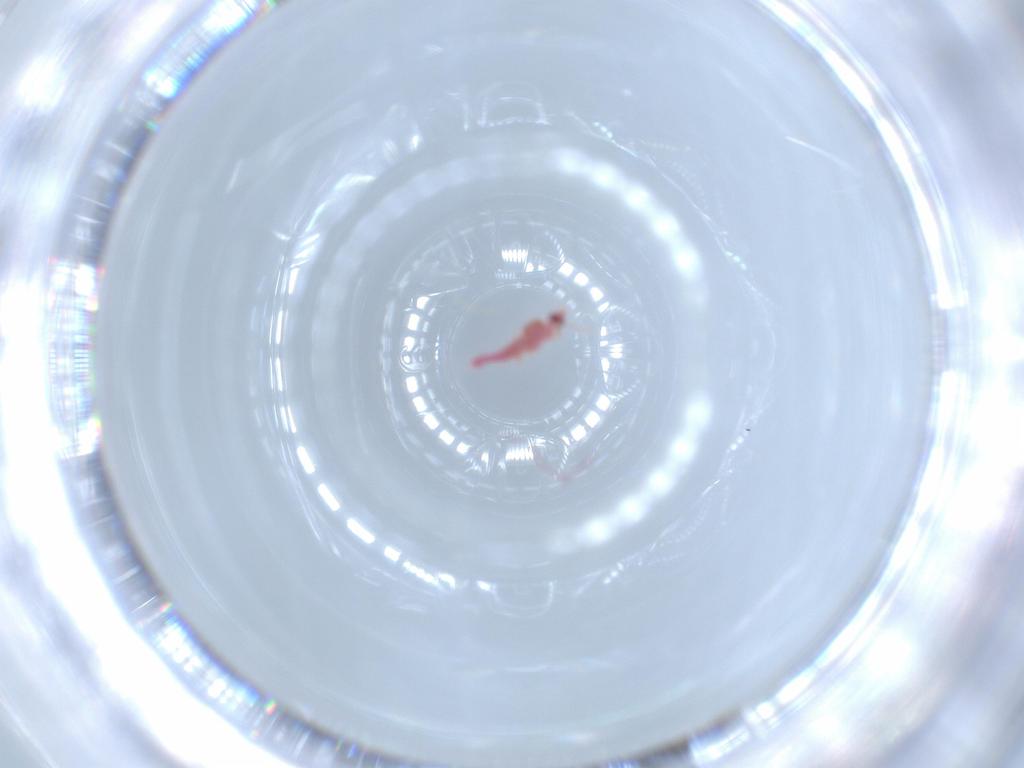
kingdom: Animalia
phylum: Arthropoda
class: Insecta
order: Hemiptera
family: Pseudococcidae
